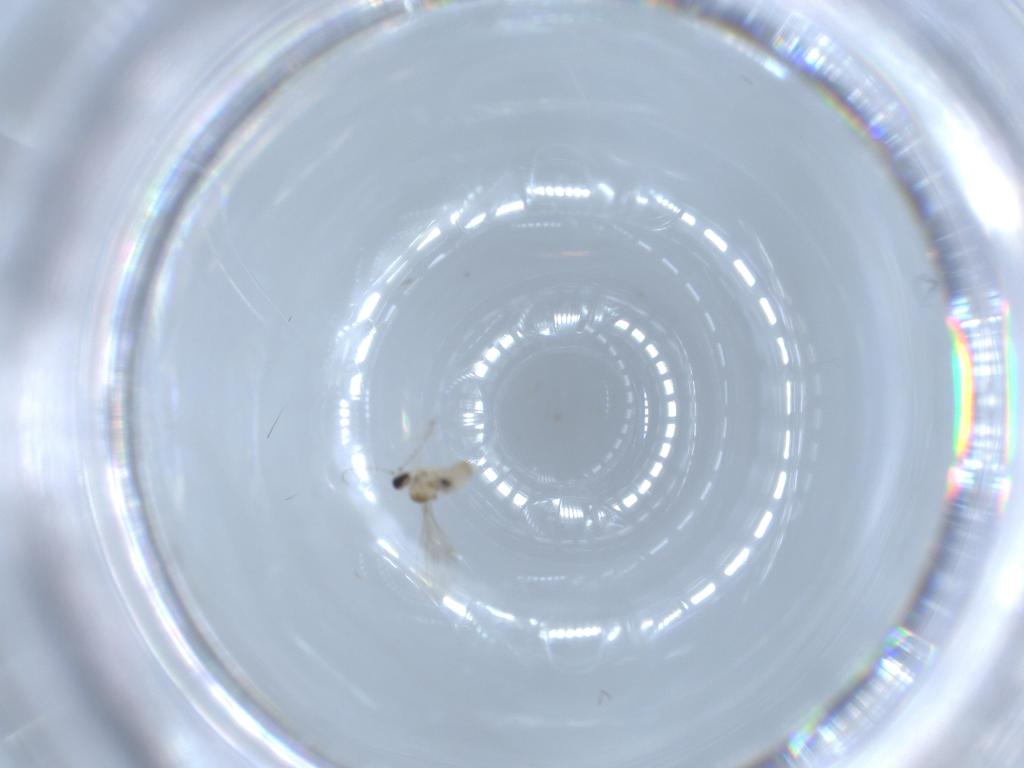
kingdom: Animalia
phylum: Arthropoda
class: Insecta
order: Diptera
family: Cecidomyiidae
